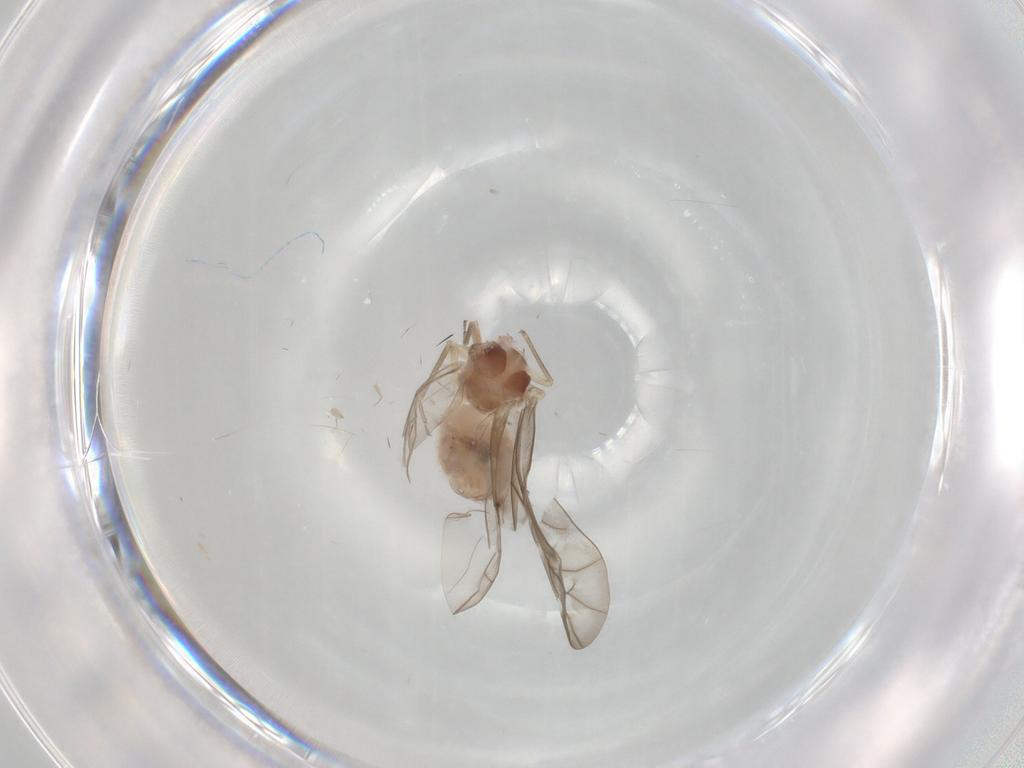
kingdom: Animalia
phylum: Arthropoda
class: Insecta
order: Psocodea
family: Peripsocidae
